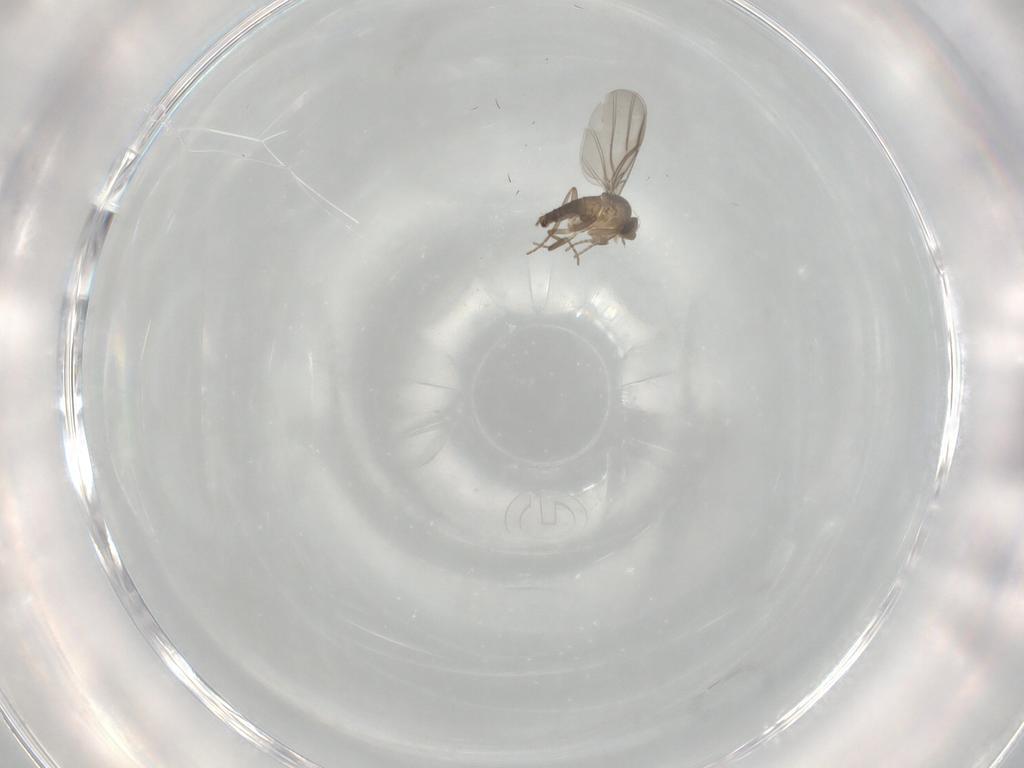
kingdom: Animalia
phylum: Arthropoda
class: Insecta
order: Diptera
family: Phoridae
